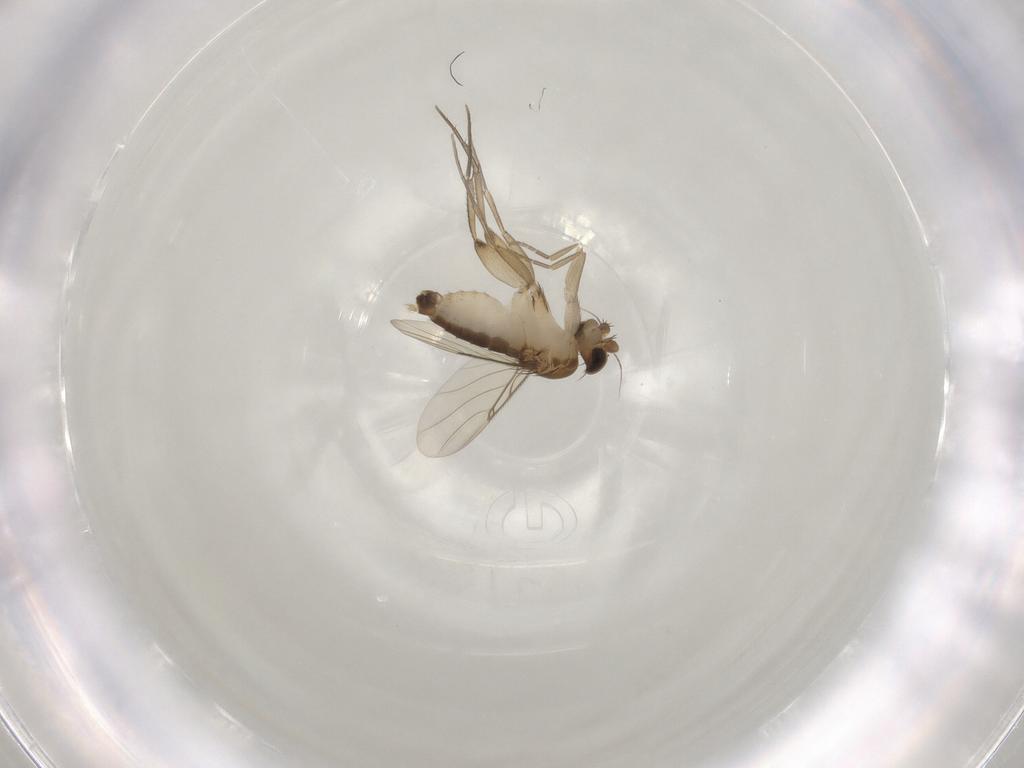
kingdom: Animalia
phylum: Arthropoda
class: Insecta
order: Diptera
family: Phoridae
